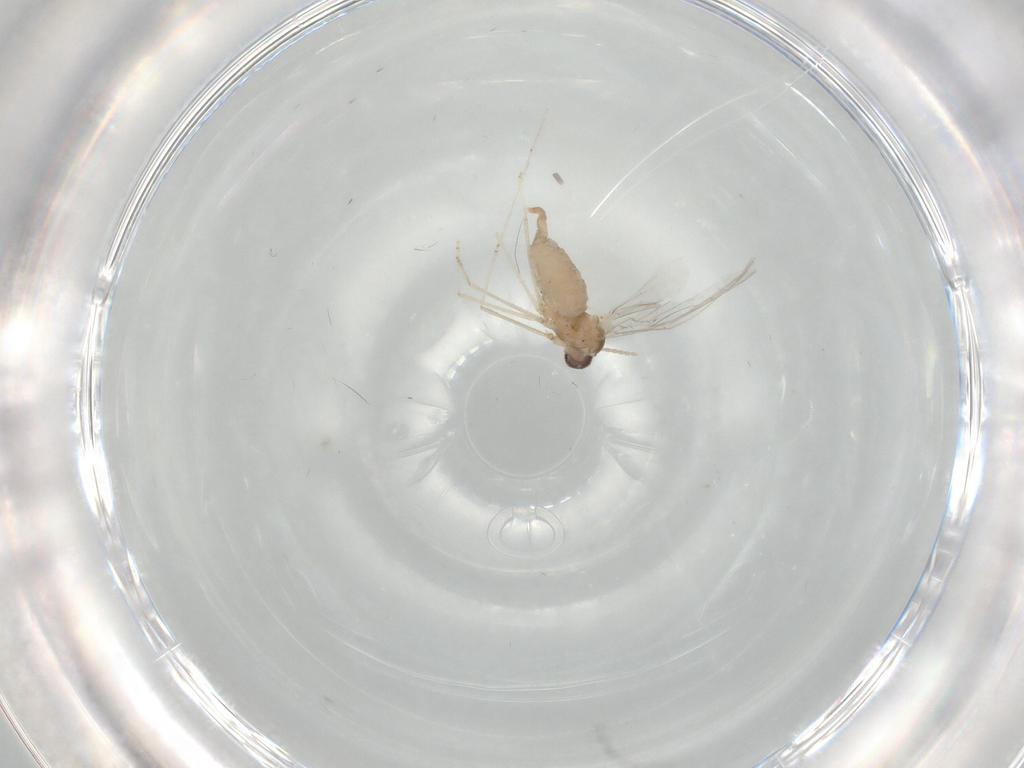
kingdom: Animalia
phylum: Arthropoda
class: Insecta
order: Diptera
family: Cecidomyiidae
